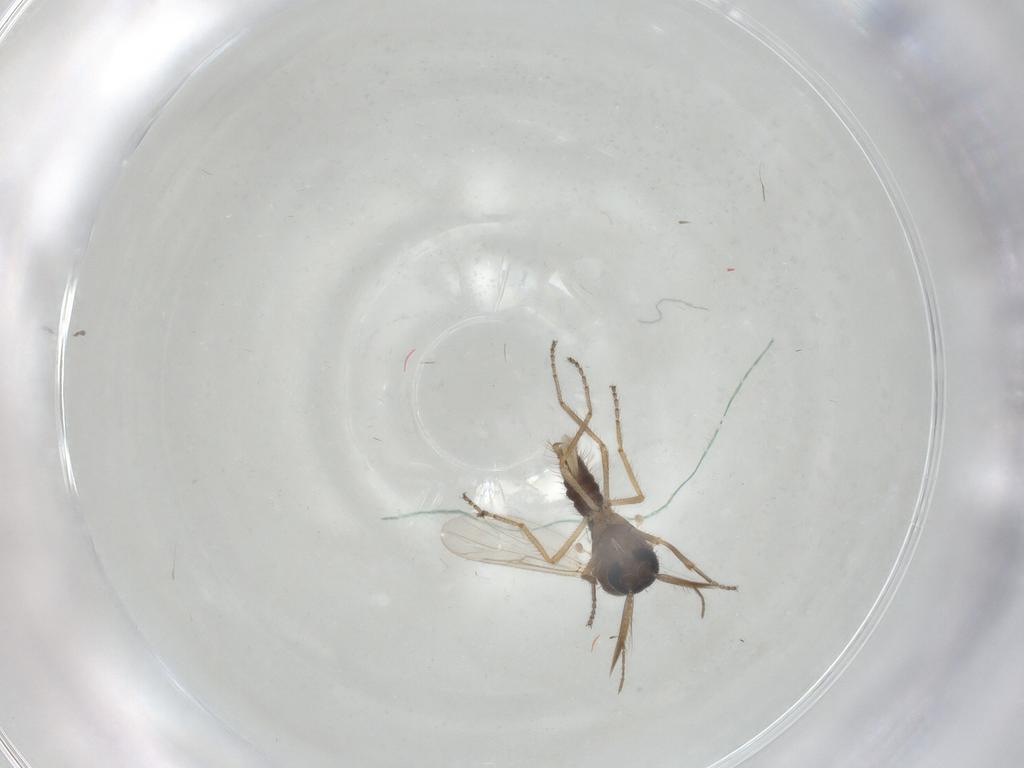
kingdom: Animalia
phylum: Arthropoda
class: Insecta
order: Diptera
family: Ceratopogonidae
